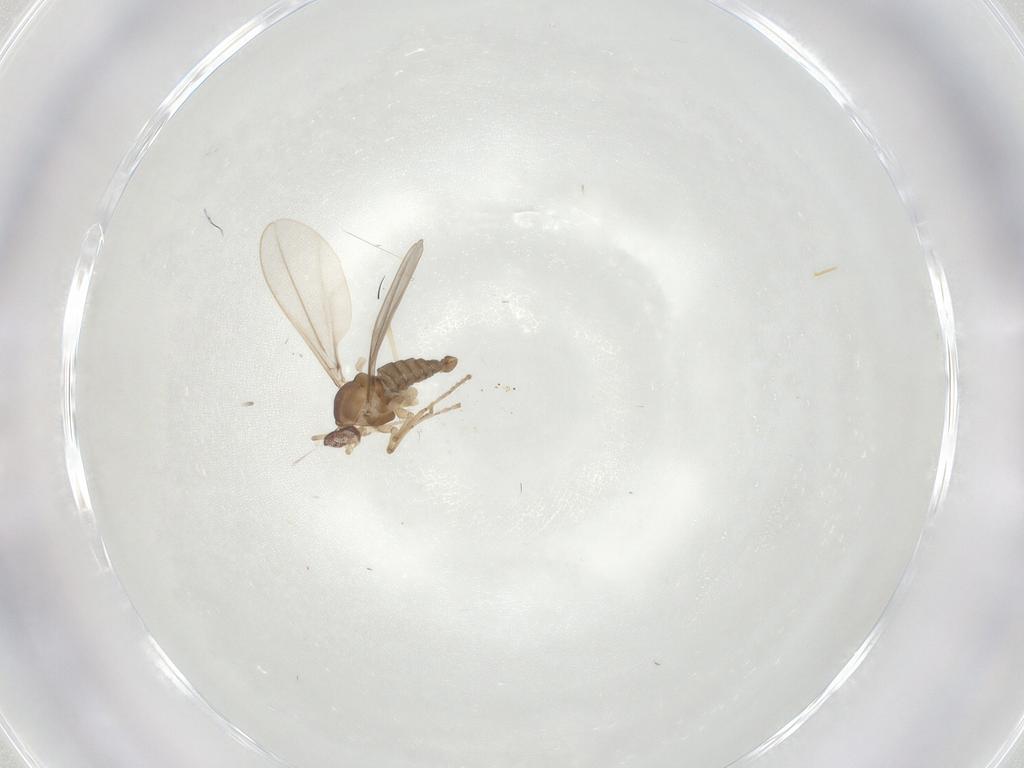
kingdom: Animalia
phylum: Arthropoda
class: Insecta
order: Diptera
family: Cecidomyiidae
